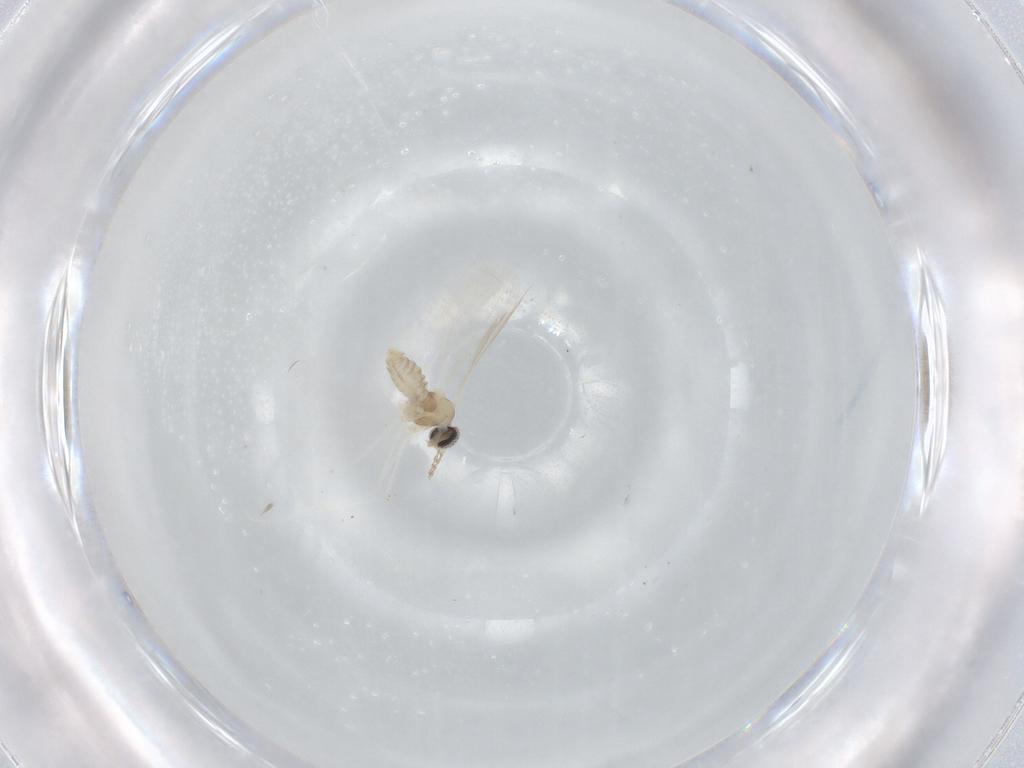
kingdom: Animalia
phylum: Arthropoda
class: Insecta
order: Diptera
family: Cecidomyiidae
